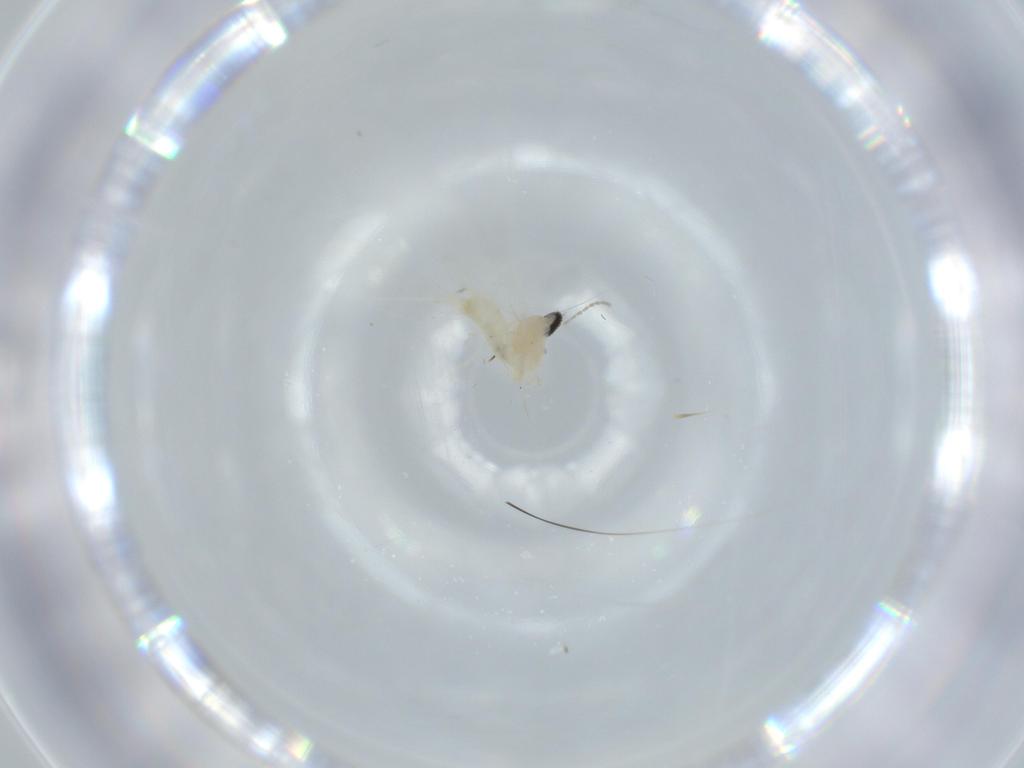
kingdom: Animalia
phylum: Arthropoda
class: Insecta
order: Diptera
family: Cecidomyiidae
